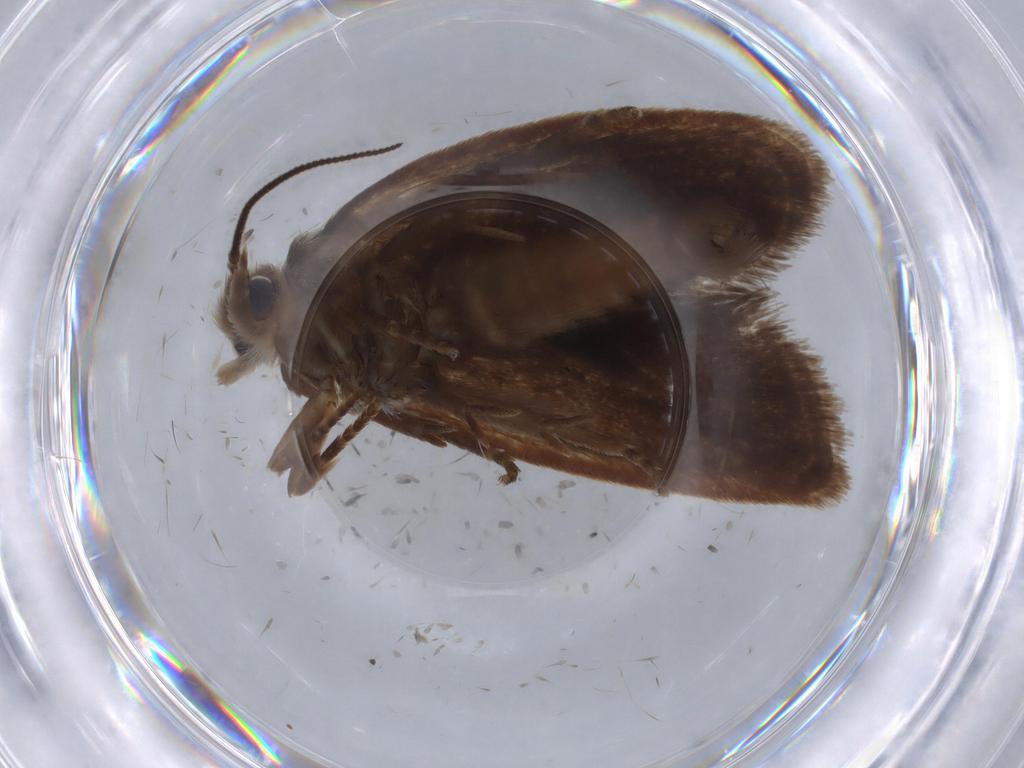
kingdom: Animalia
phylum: Arthropoda
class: Insecta
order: Lepidoptera
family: Tineidae
